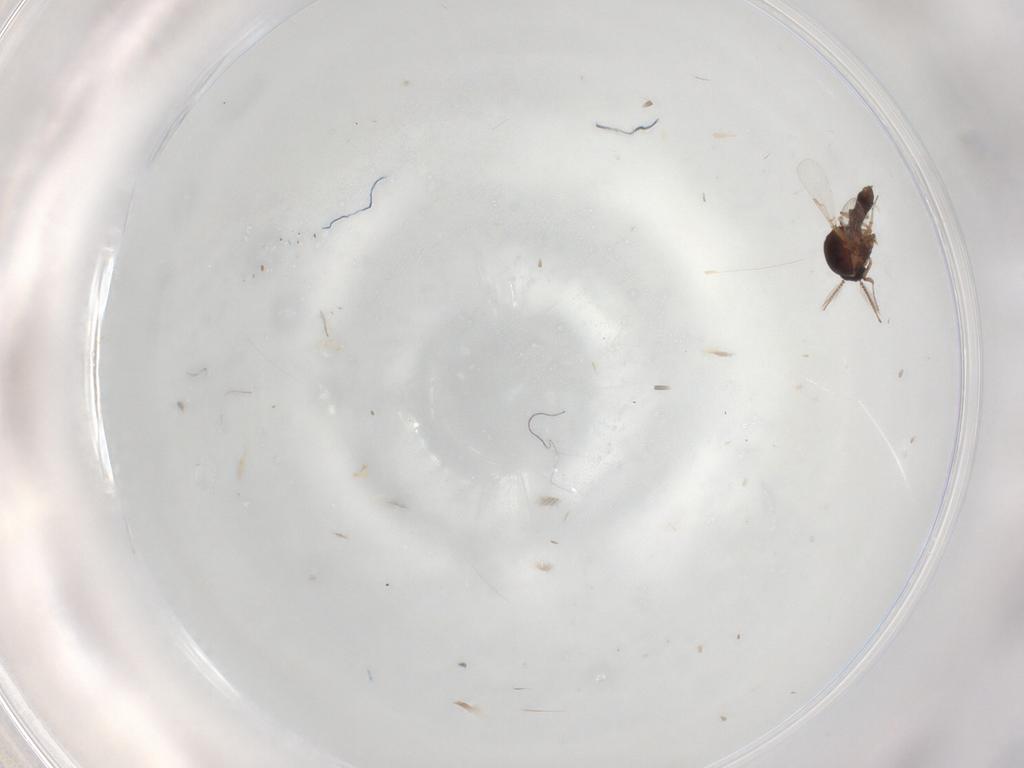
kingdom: Animalia
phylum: Arthropoda
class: Insecta
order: Diptera
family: Ceratopogonidae
